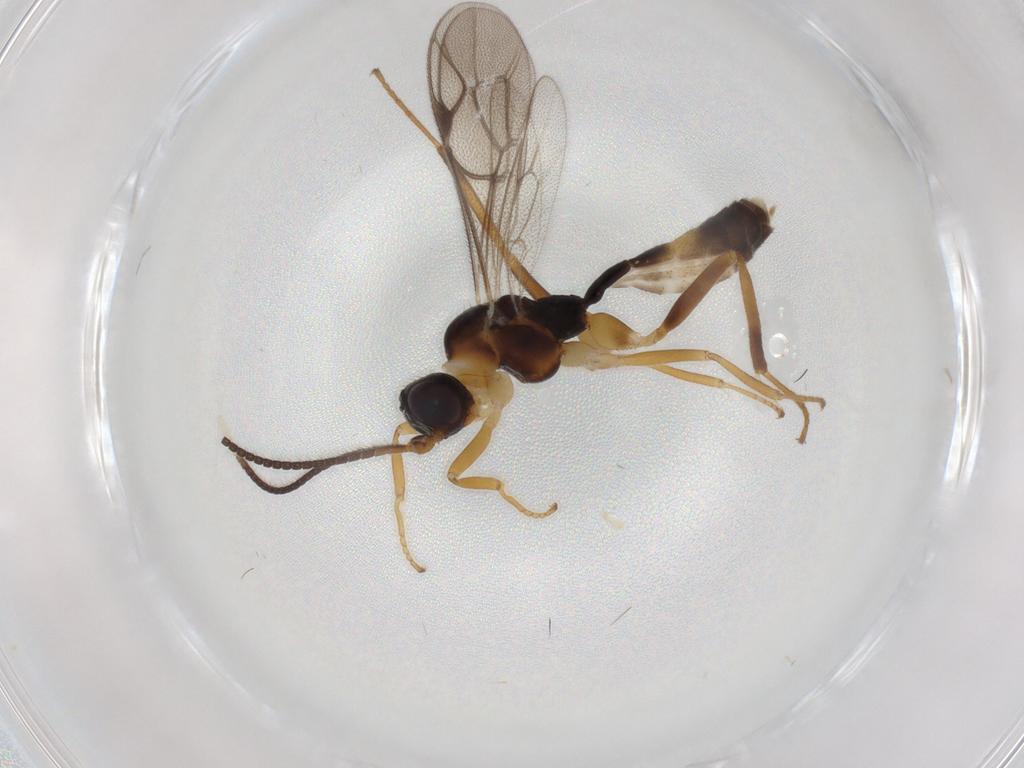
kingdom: Animalia
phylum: Arthropoda
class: Insecta
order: Hymenoptera
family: Ichneumonidae
